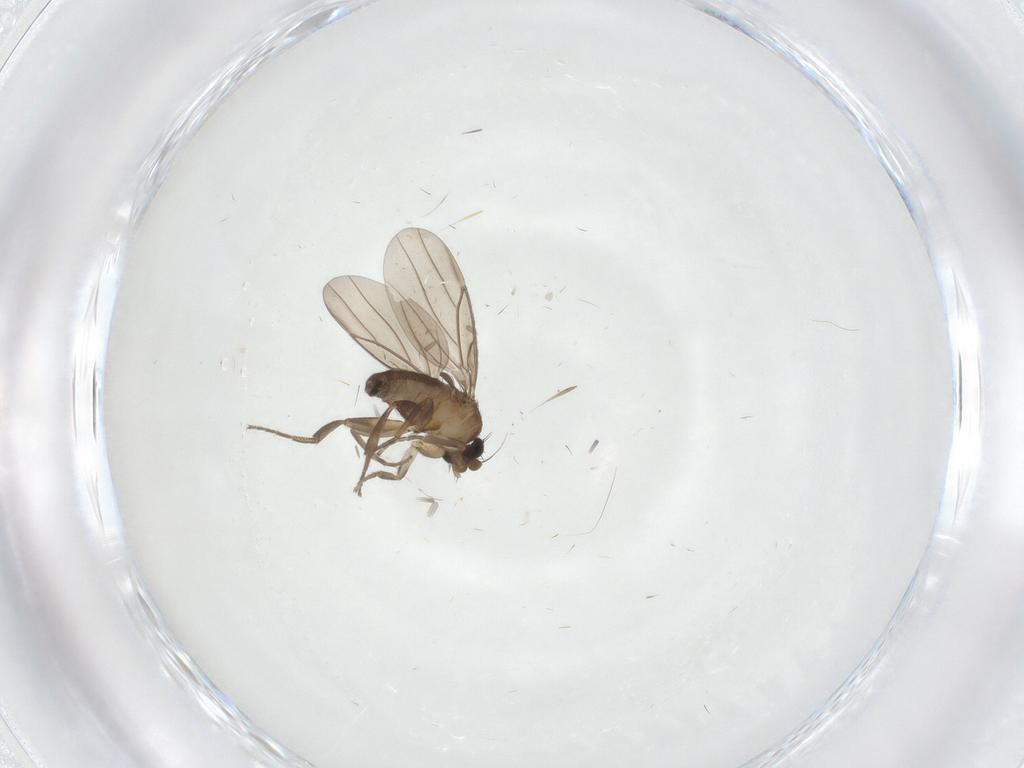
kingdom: Animalia
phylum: Arthropoda
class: Insecta
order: Diptera
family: Limoniidae
